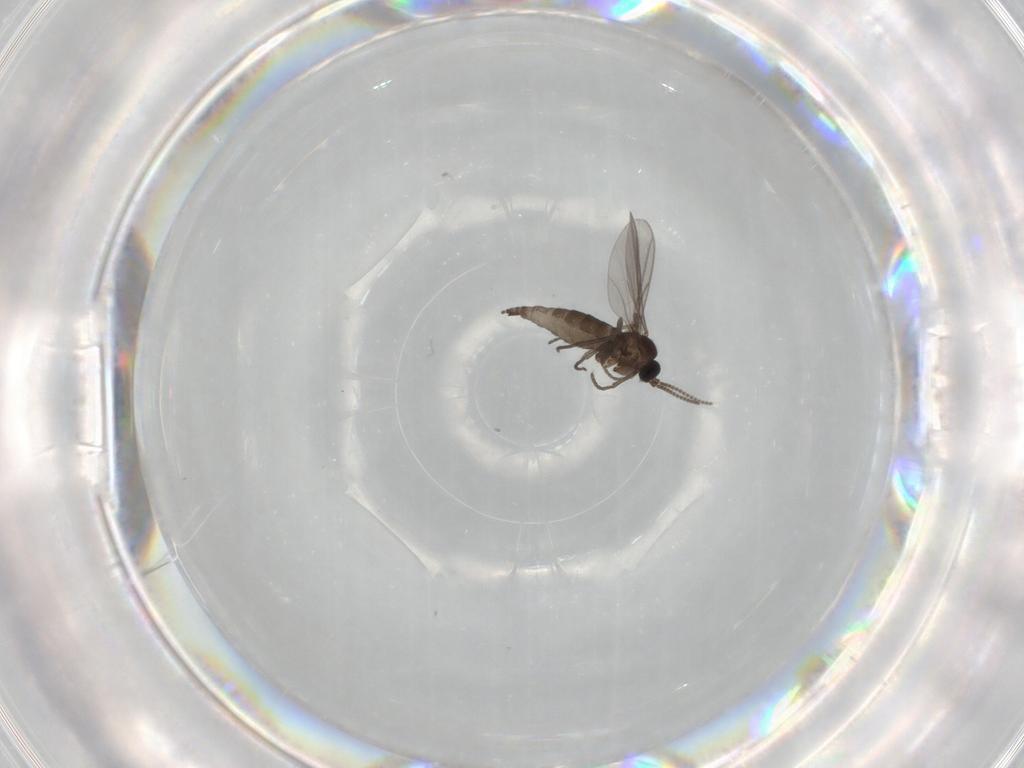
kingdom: Animalia
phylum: Arthropoda
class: Insecta
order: Diptera
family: Sciaridae
